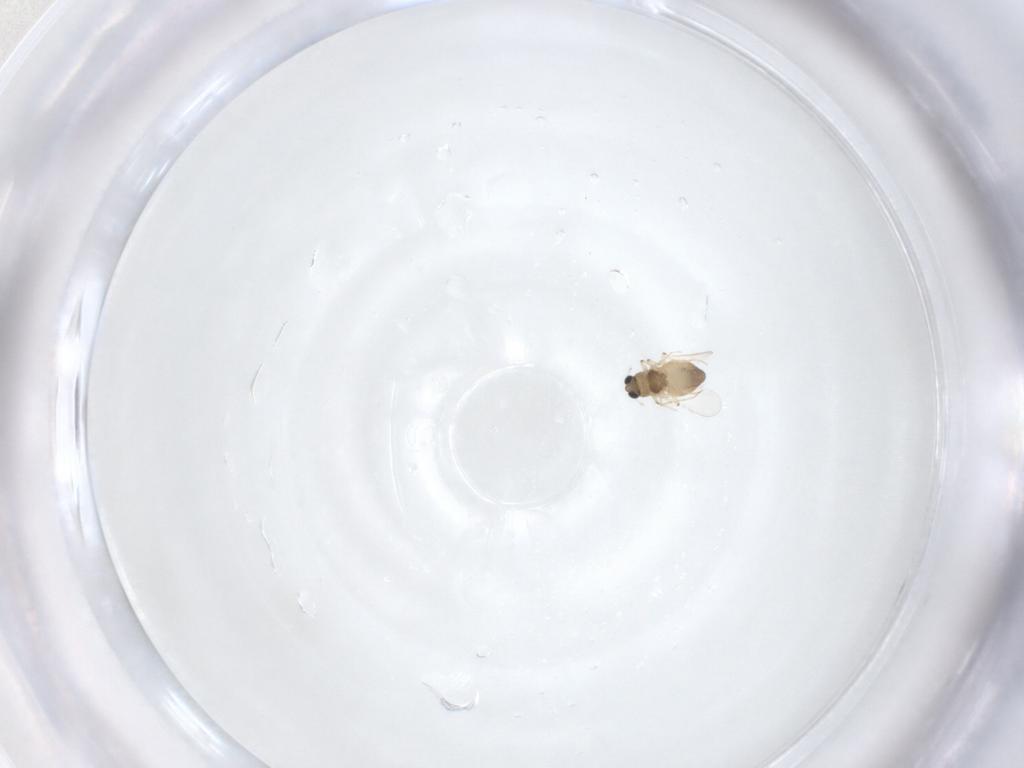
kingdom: Animalia
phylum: Arthropoda
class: Insecta
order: Diptera
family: Chironomidae
